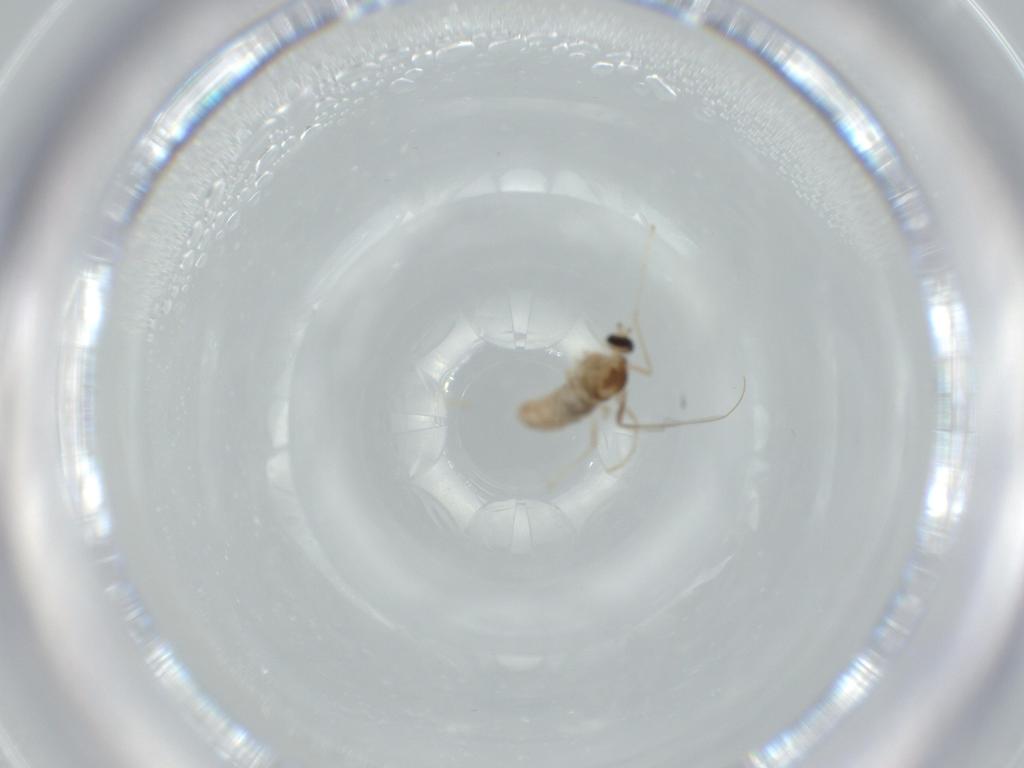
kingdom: Animalia
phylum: Arthropoda
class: Insecta
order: Diptera
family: Cecidomyiidae
